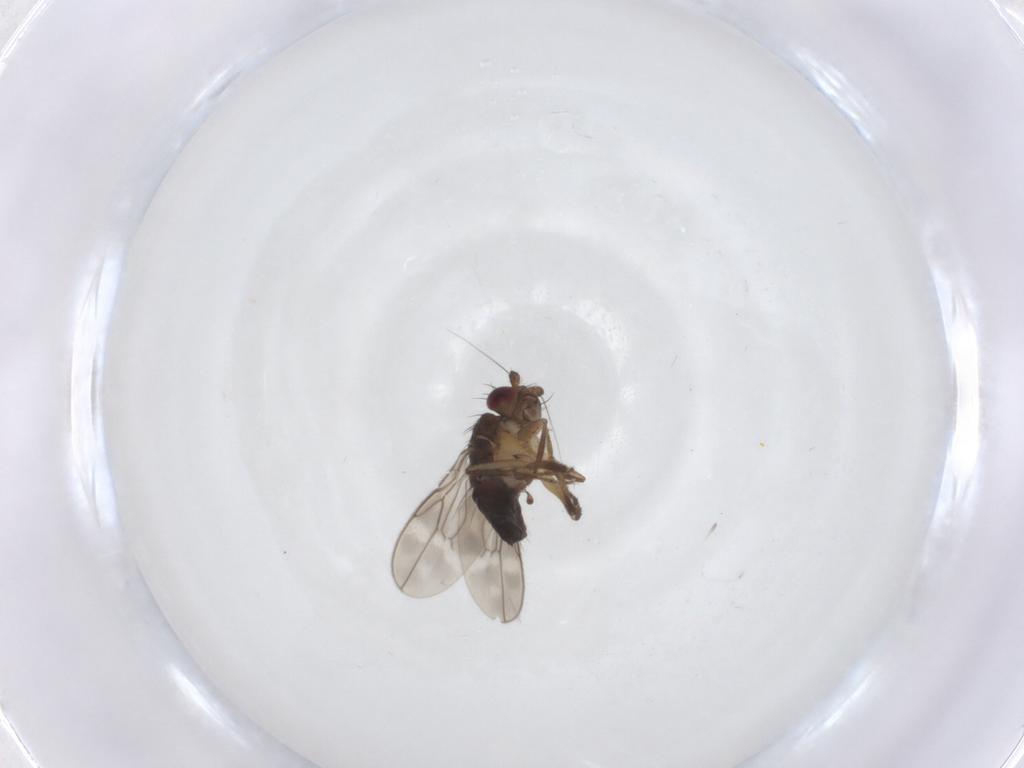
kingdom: Animalia
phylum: Arthropoda
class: Insecta
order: Diptera
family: Sphaeroceridae
